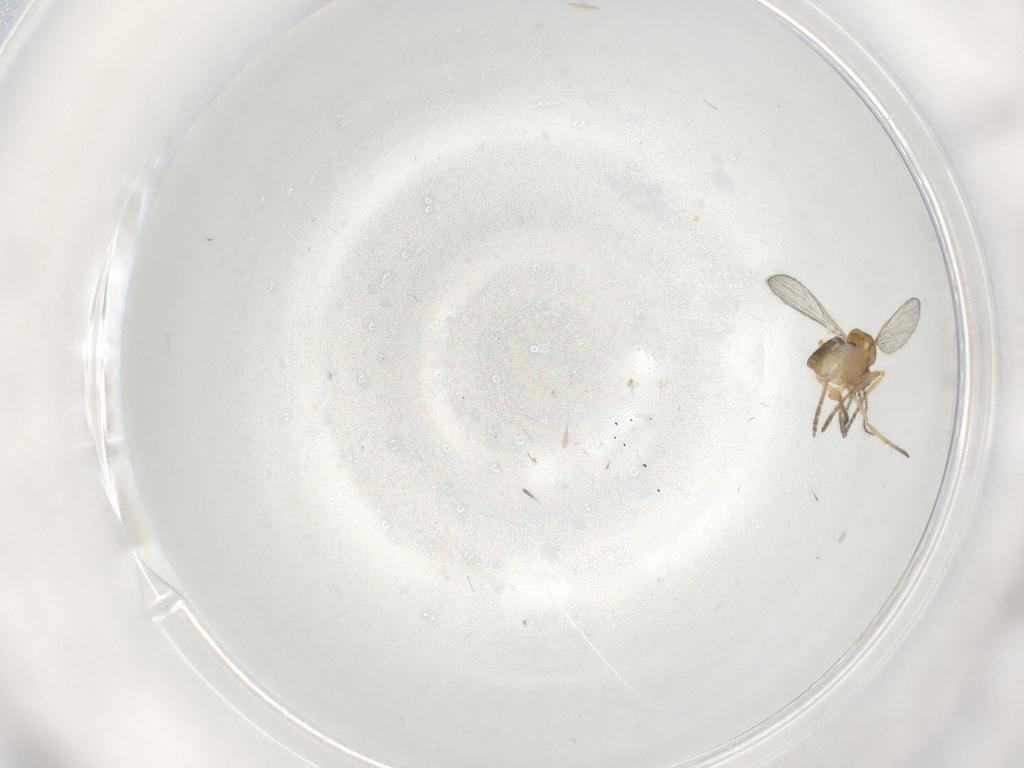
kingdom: Animalia
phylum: Arthropoda
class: Insecta
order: Diptera
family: Ceratopogonidae
